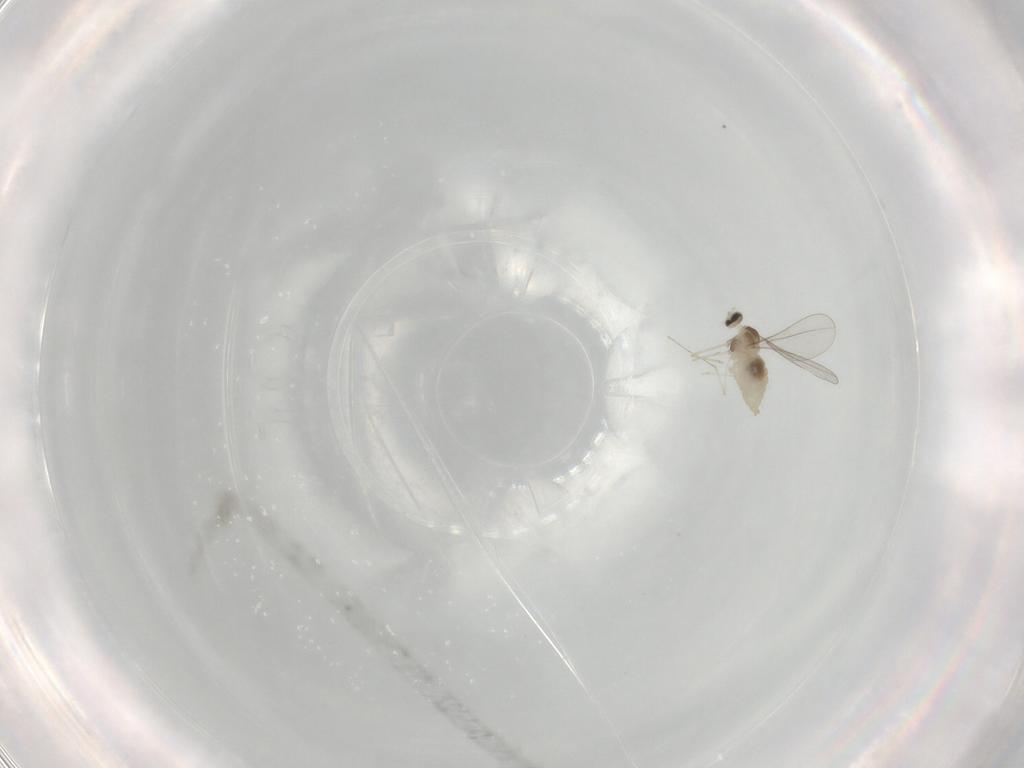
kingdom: Animalia
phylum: Arthropoda
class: Insecta
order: Diptera
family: Cecidomyiidae
